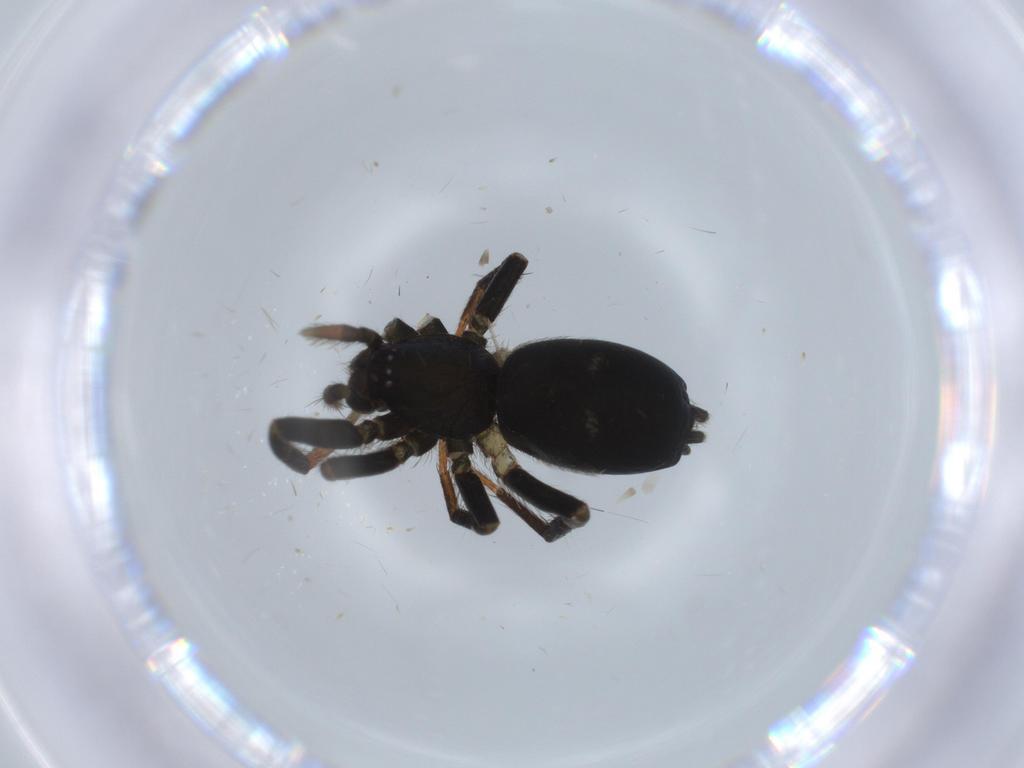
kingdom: Animalia
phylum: Arthropoda
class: Arachnida
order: Araneae
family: Gnaphosidae
